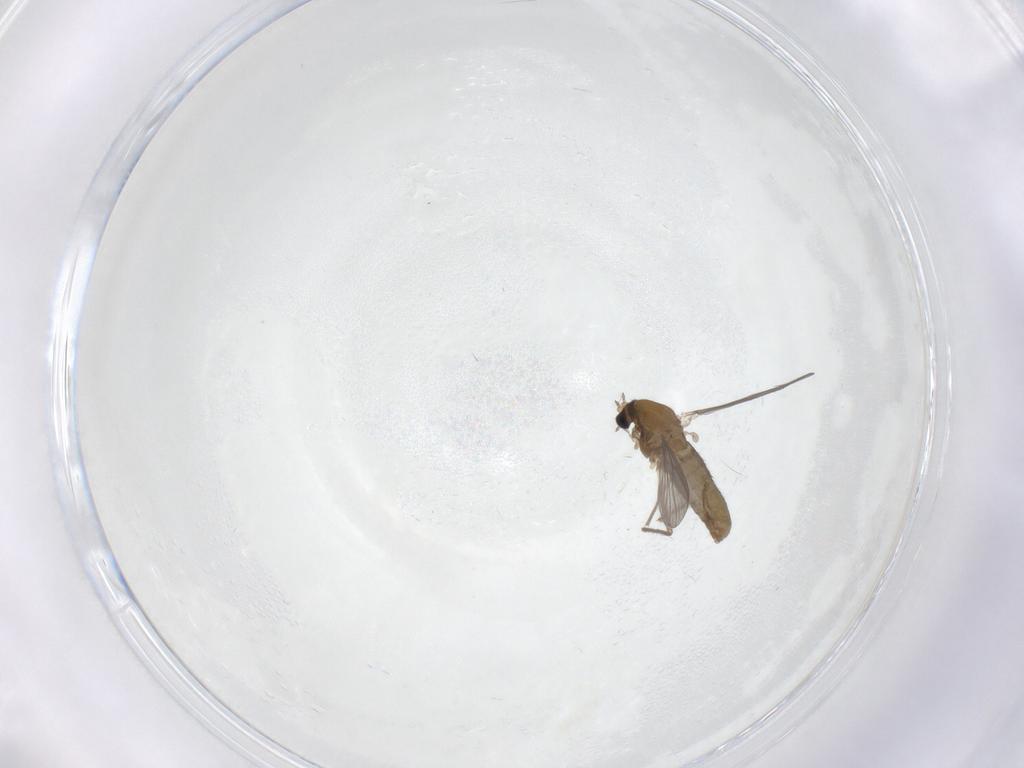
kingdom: Animalia
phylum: Arthropoda
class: Insecta
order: Diptera
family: Chironomidae
